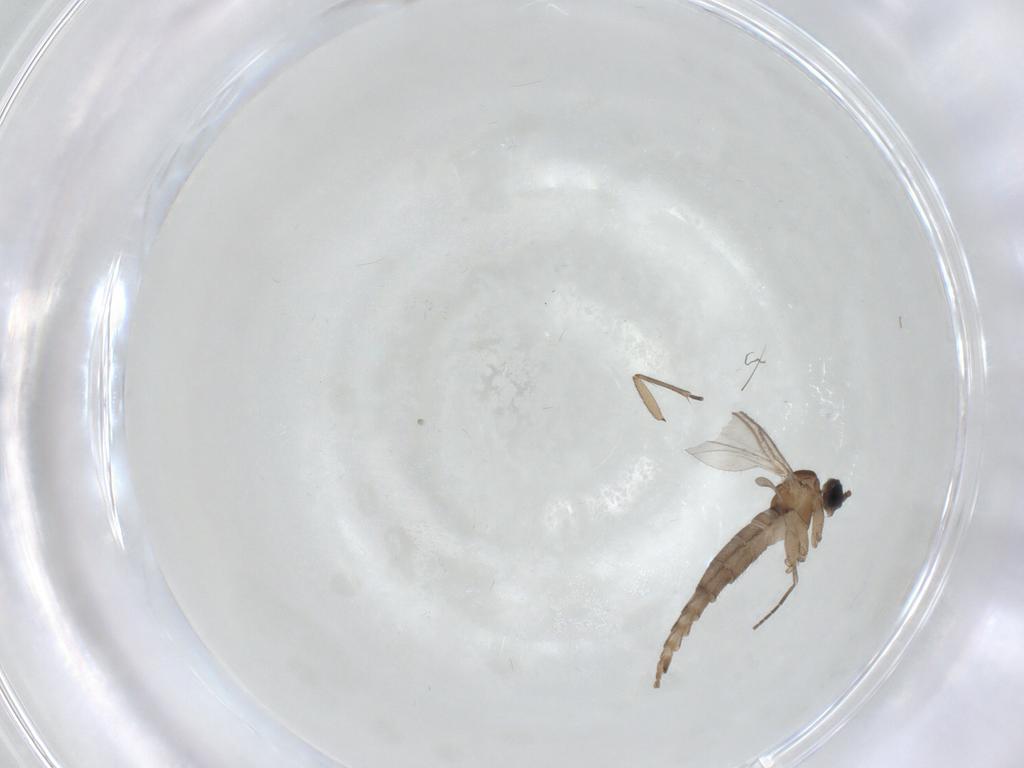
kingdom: Animalia
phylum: Arthropoda
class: Insecta
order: Diptera
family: Sciaridae
